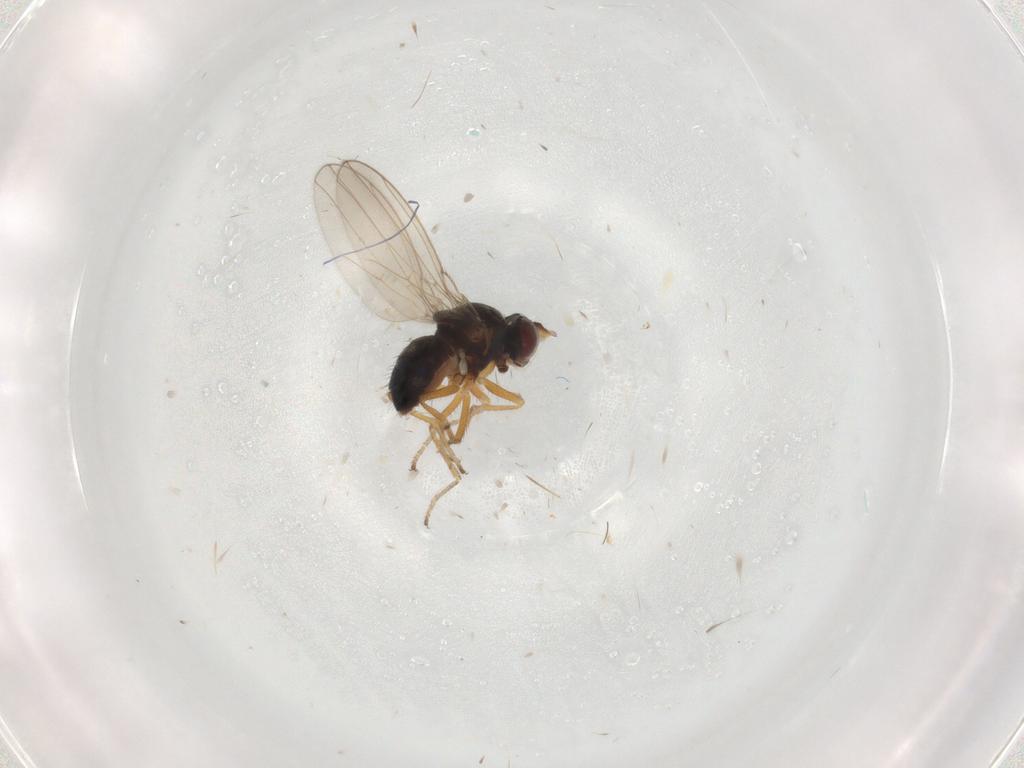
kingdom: Animalia
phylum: Arthropoda
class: Insecta
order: Diptera
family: Ephydridae
